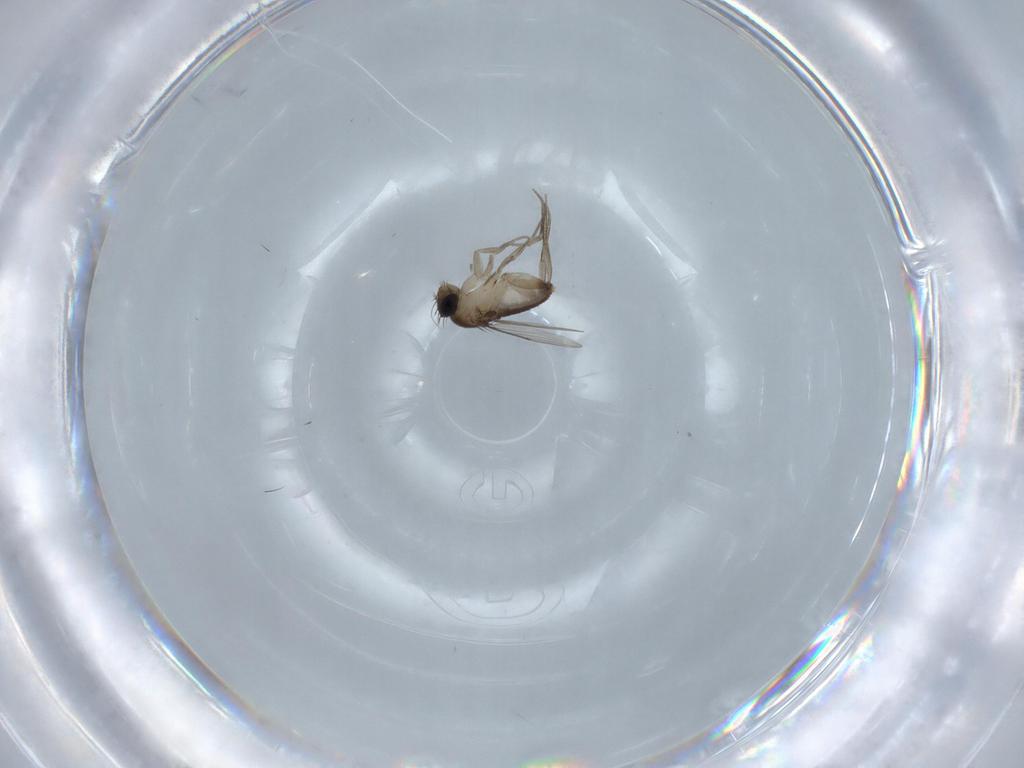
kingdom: Animalia
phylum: Arthropoda
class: Insecta
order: Diptera
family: Phoridae
